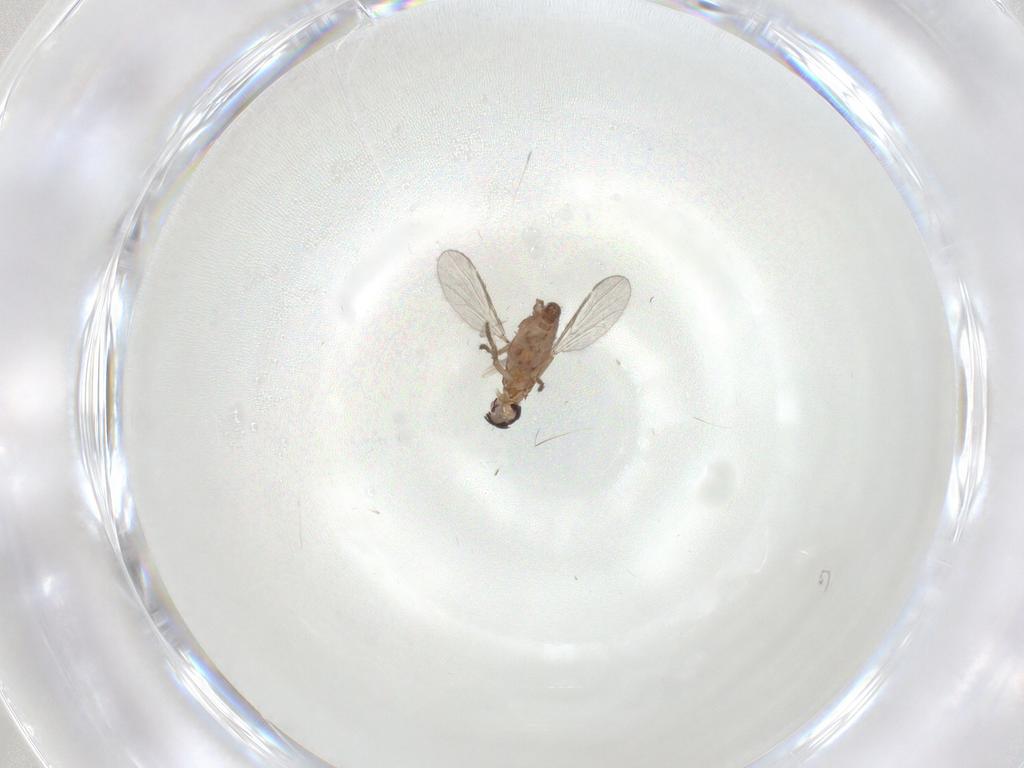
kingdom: Animalia
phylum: Arthropoda
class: Insecta
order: Diptera
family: Ceratopogonidae
